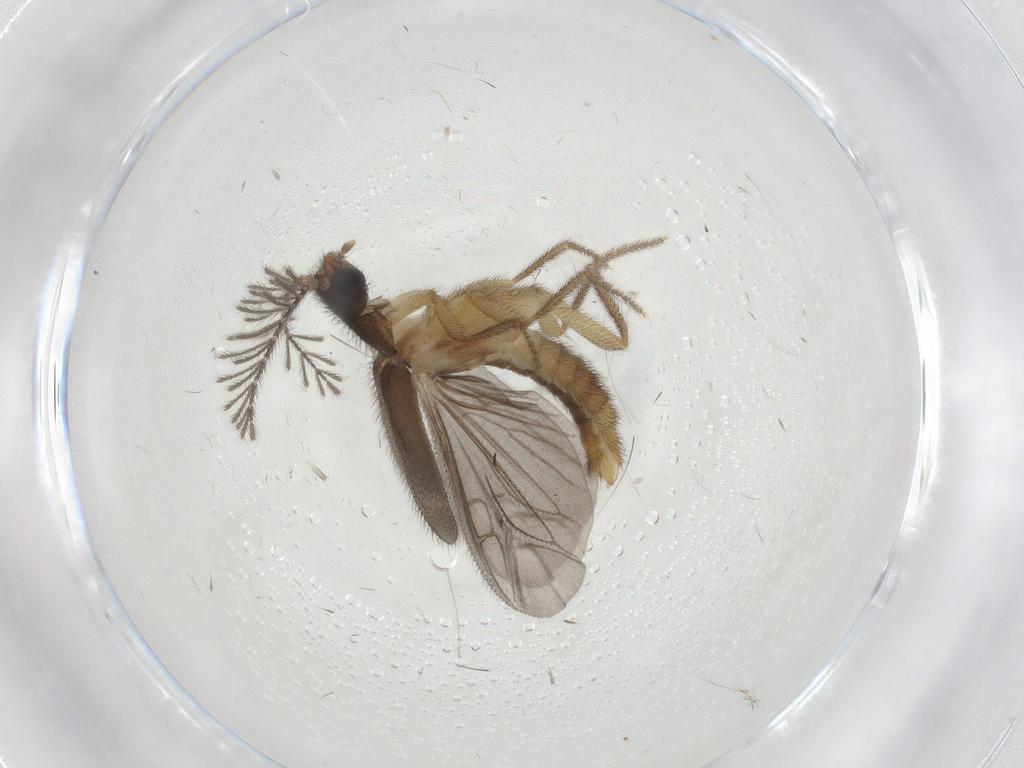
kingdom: Animalia
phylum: Arthropoda
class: Insecta
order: Coleoptera
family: Phengodidae
